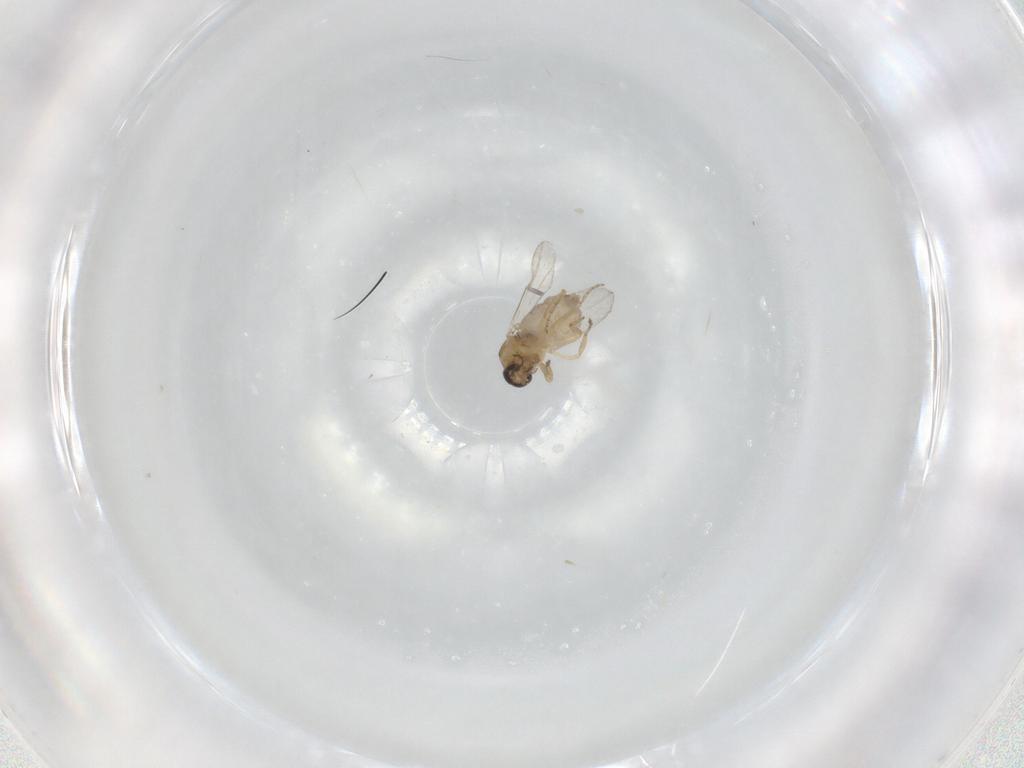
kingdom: Animalia
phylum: Arthropoda
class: Insecta
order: Diptera
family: Ceratopogonidae
